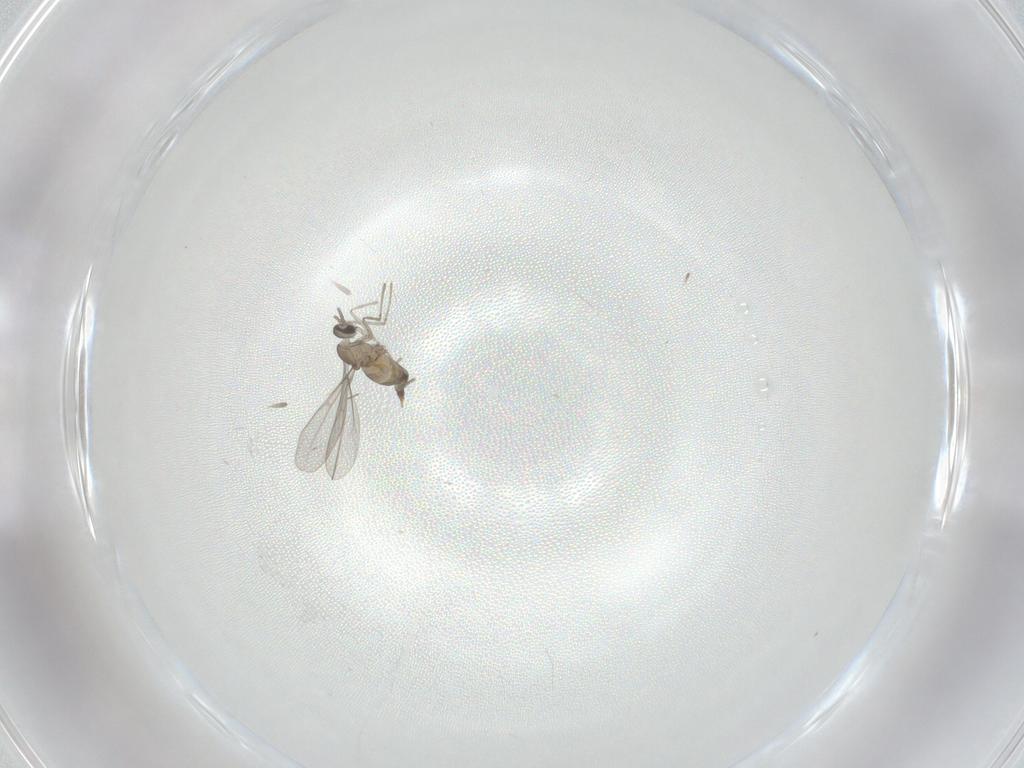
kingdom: Animalia
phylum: Arthropoda
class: Insecta
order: Diptera
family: Cecidomyiidae
